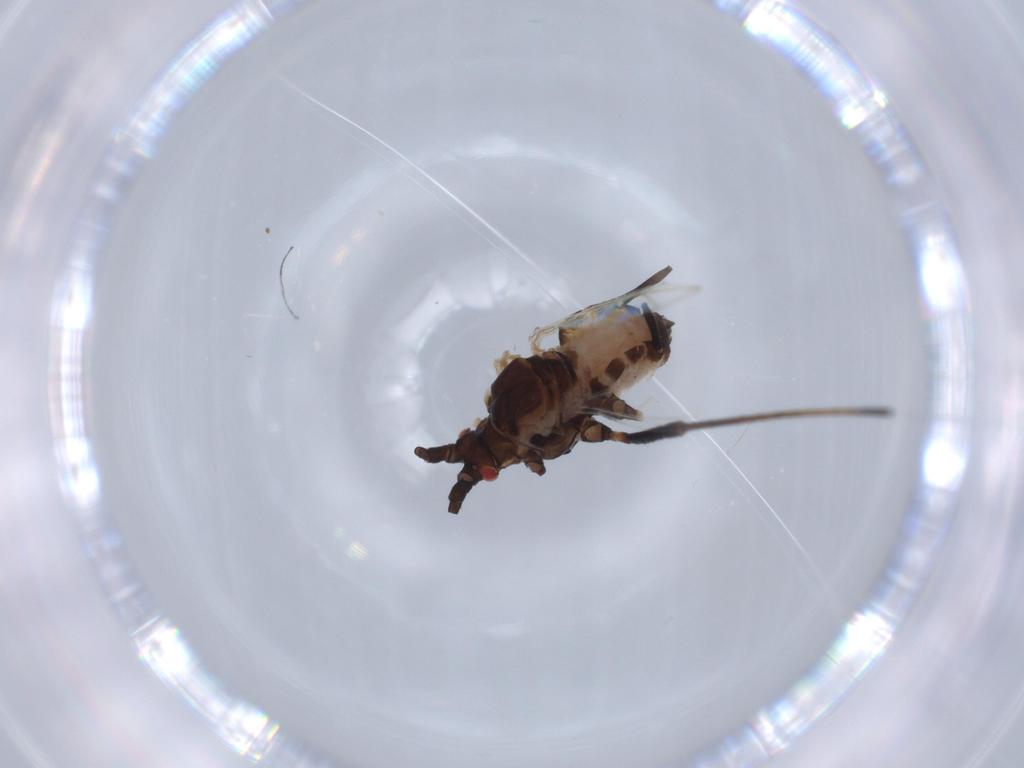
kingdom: Animalia
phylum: Arthropoda
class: Insecta
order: Hemiptera
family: Aphididae
